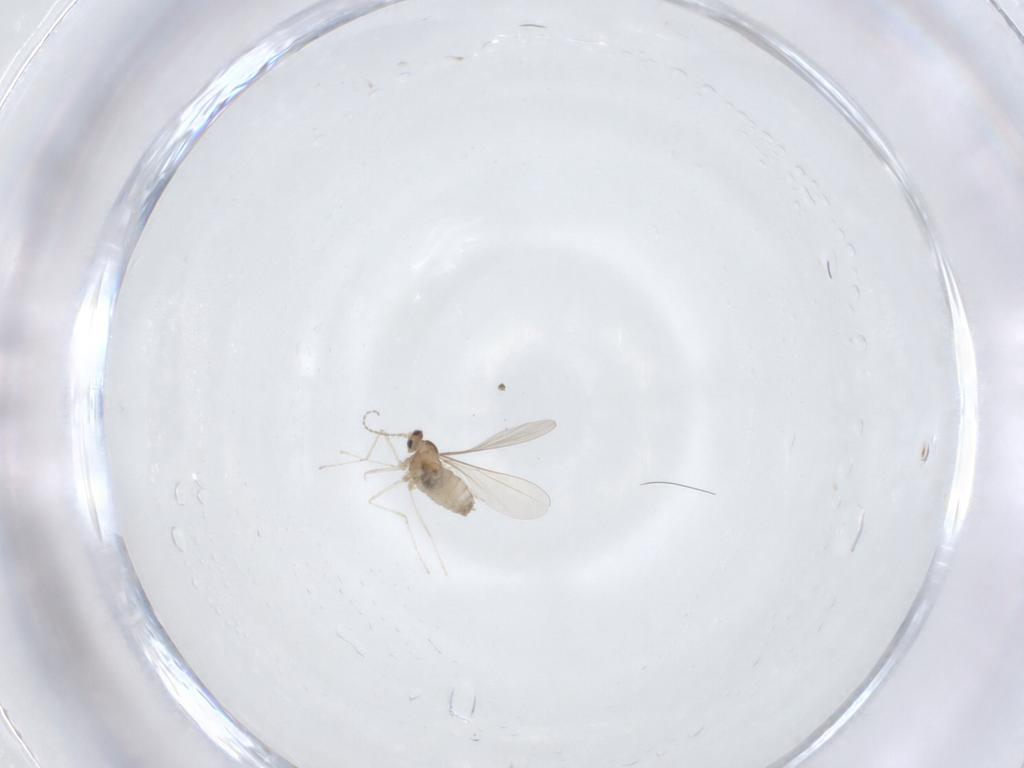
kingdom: Animalia
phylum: Arthropoda
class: Insecta
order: Diptera
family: Cecidomyiidae
